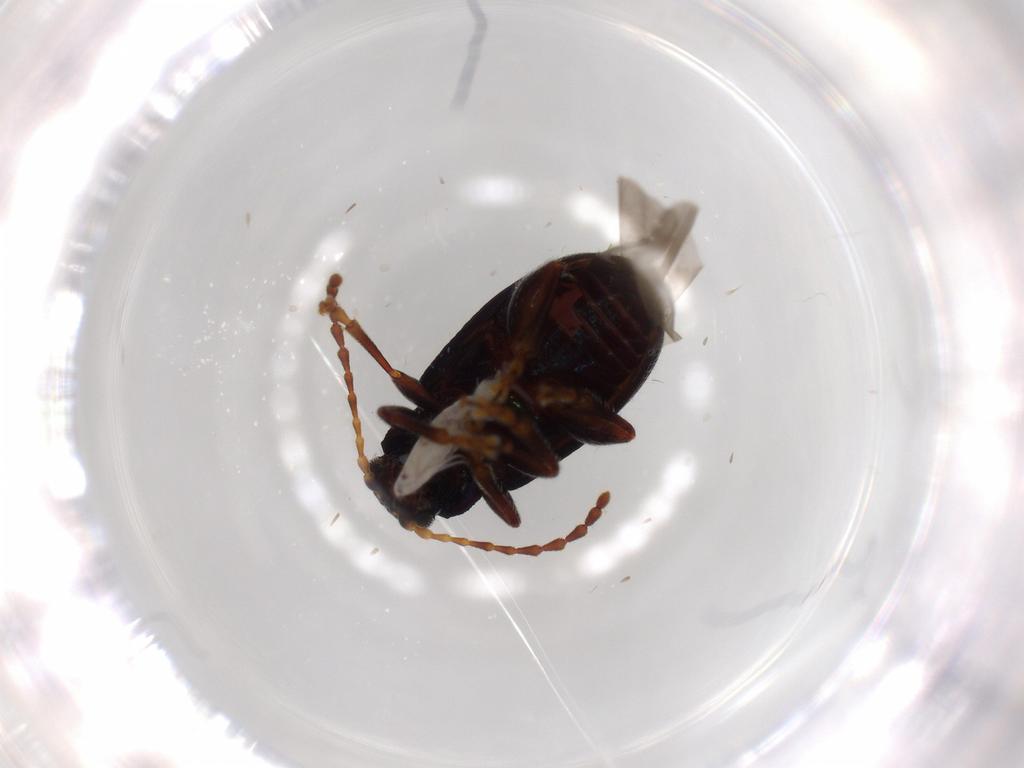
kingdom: Animalia
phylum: Arthropoda
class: Collembola
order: Entomobryomorpha
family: Entomobryidae
